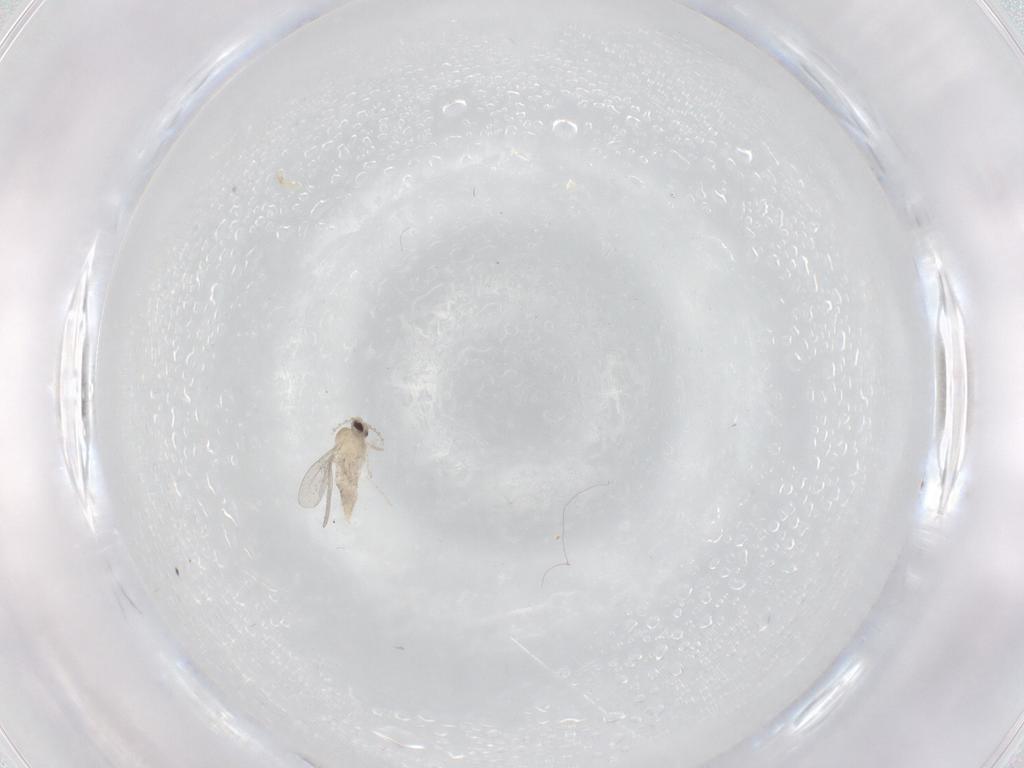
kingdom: Animalia
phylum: Arthropoda
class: Insecta
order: Diptera
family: Cecidomyiidae
